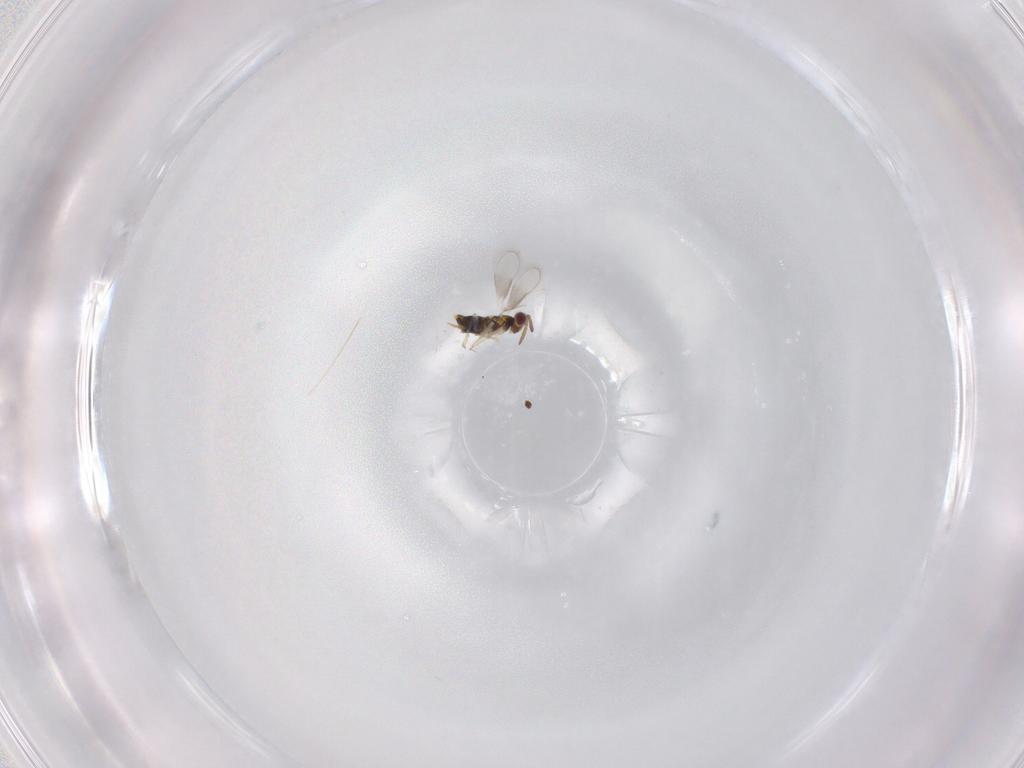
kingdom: Animalia
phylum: Arthropoda
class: Insecta
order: Hymenoptera
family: Aphelinidae
